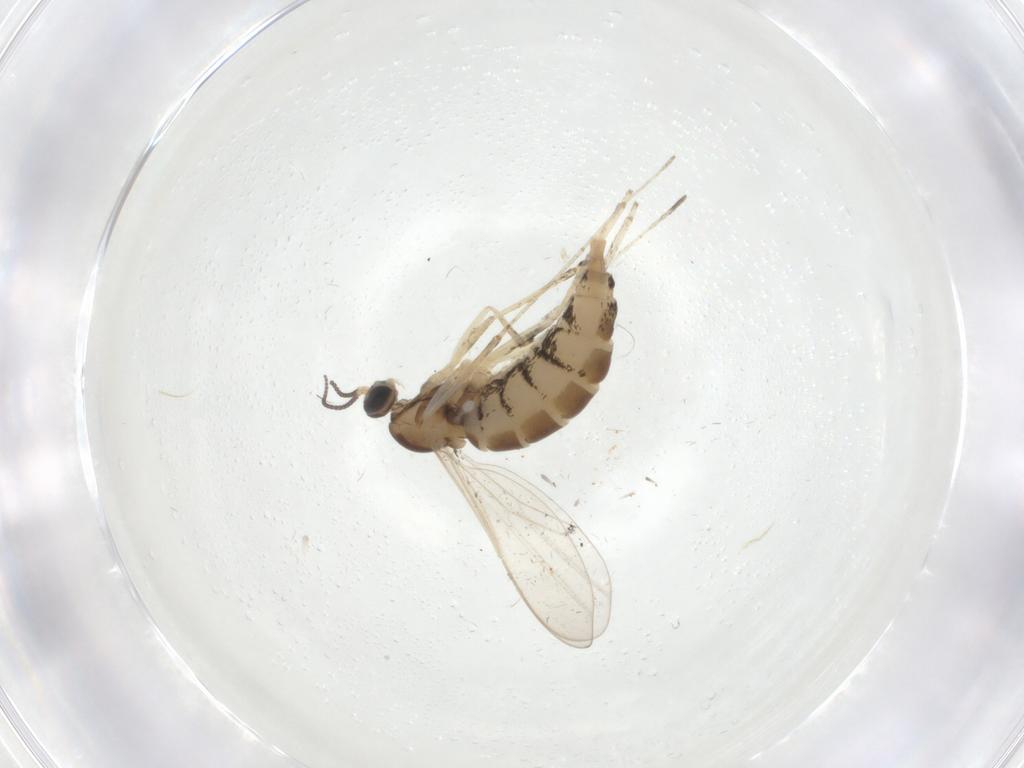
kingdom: Animalia
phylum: Arthropoda
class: Insecta
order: Diptera
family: Cecidomyiidae
